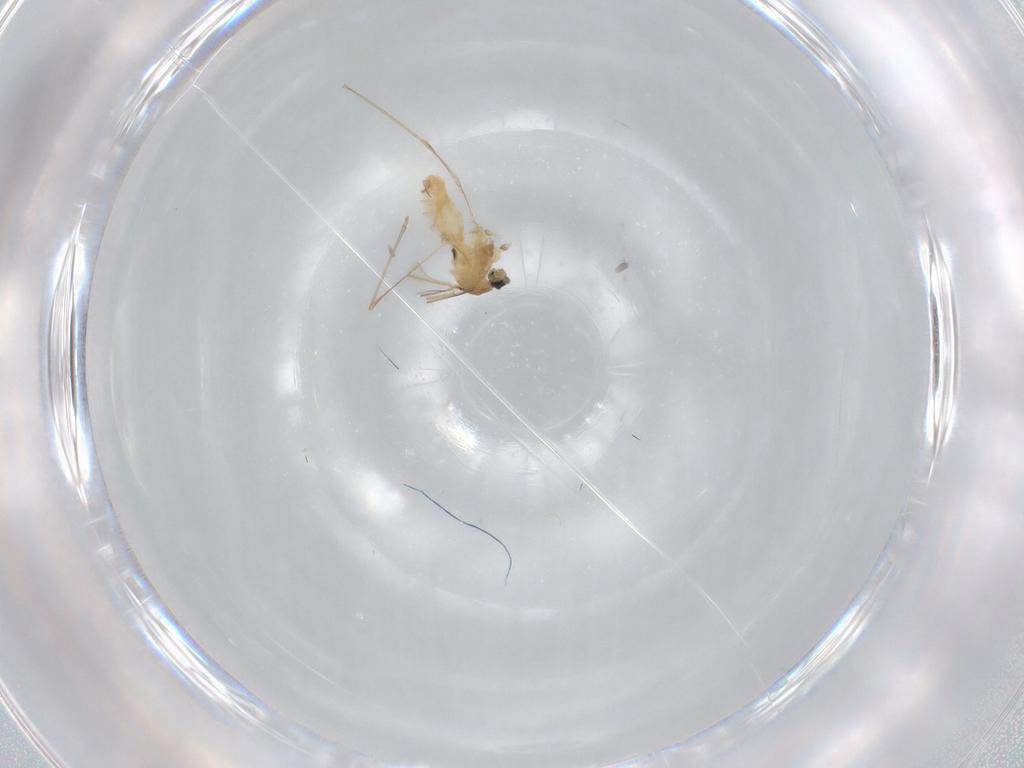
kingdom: Animalia
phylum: Arthropoda
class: Insecta
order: Diptera
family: Cecidomyiidae
